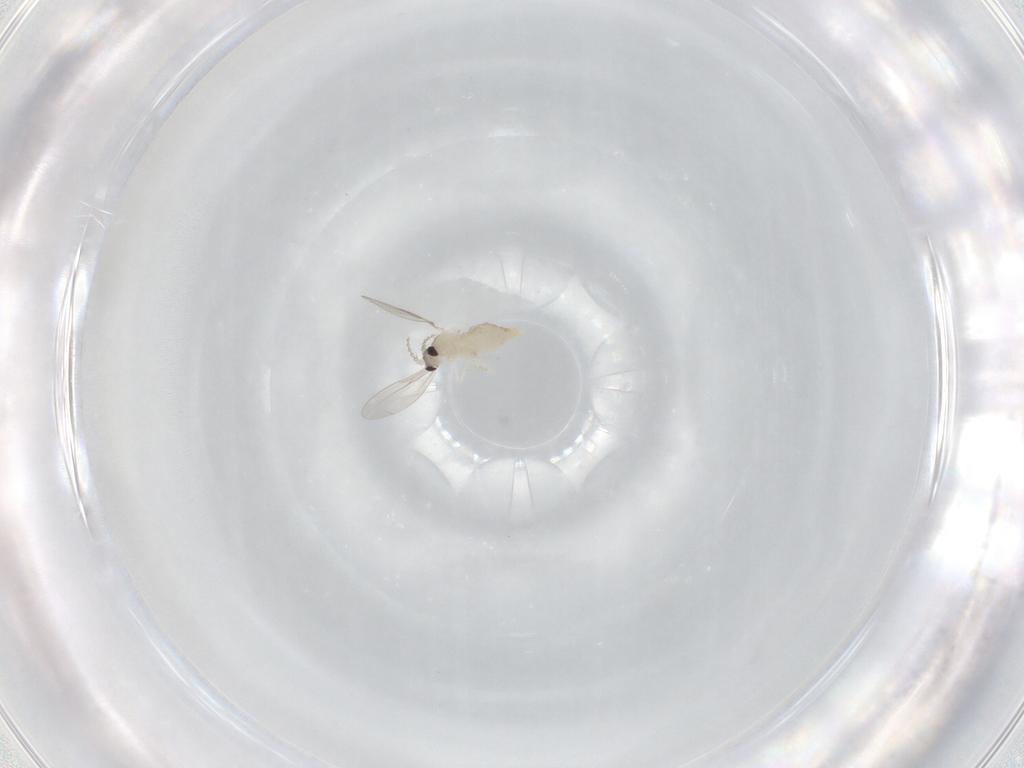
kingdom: Animalia
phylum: Arthropoda
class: Insecta
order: Diptera
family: Cecidomyiidae
